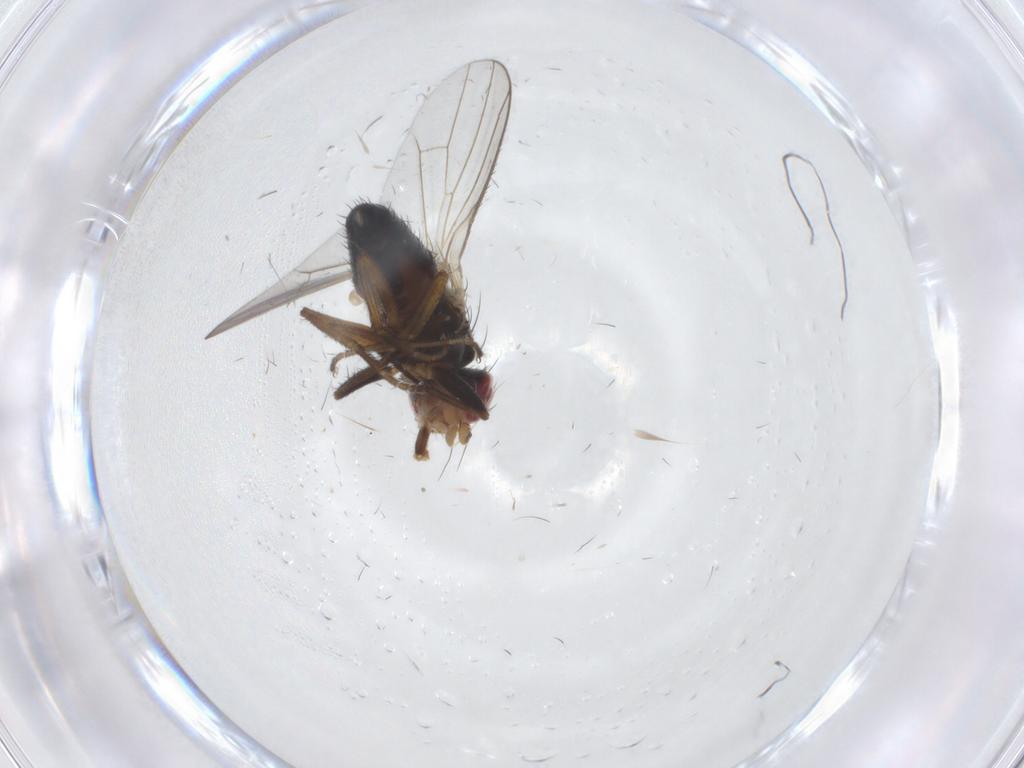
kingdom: Animalia
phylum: Arthropoda
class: Insecta
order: Diptera
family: Heleomyzidae
